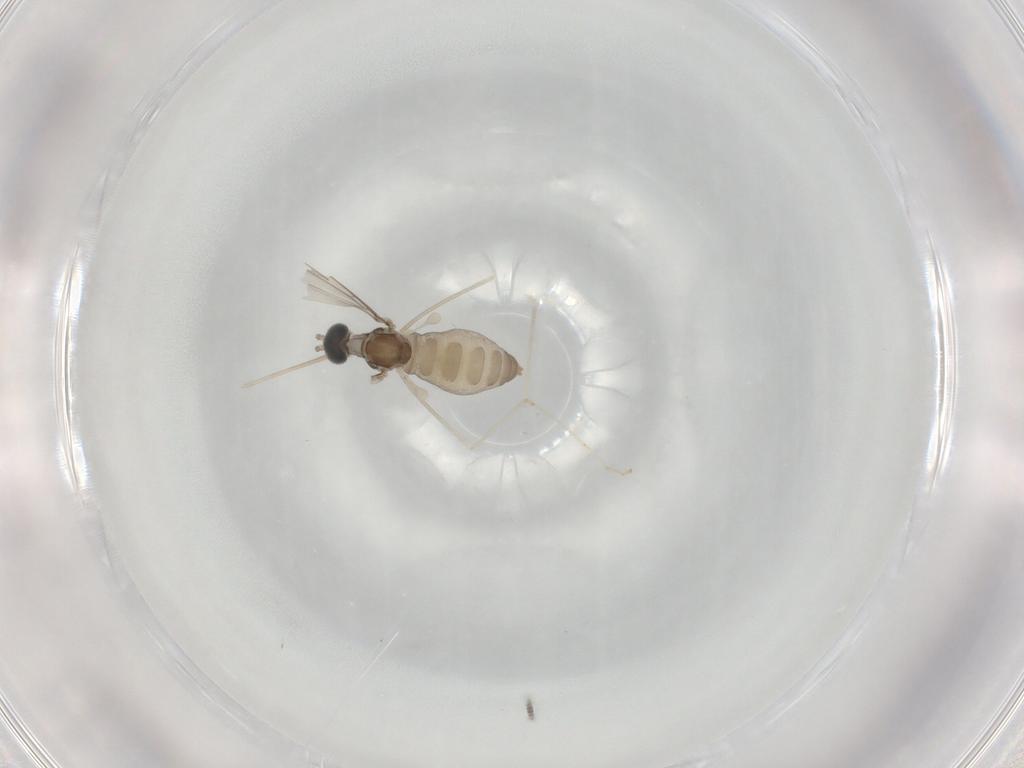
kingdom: Animalia
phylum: Arthropoda
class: Insecta
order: Diptera
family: Cecidomyiidae
